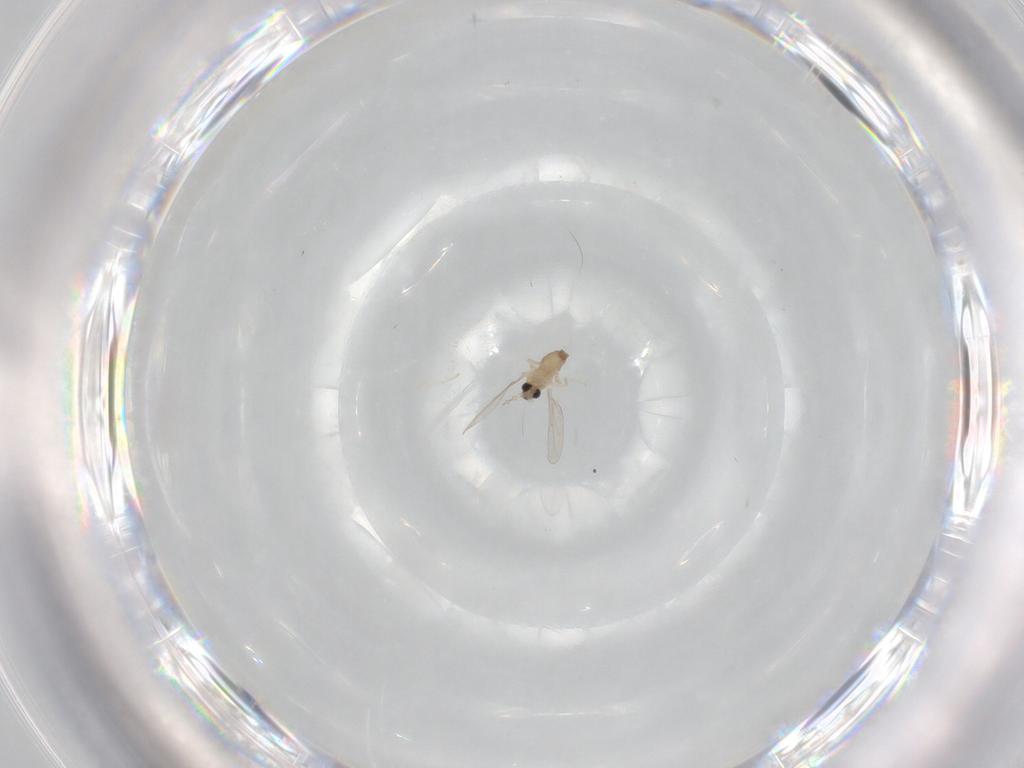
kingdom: Animalia
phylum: Arthropoda
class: Insecta
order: Diptera
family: Cecidomyiidae
